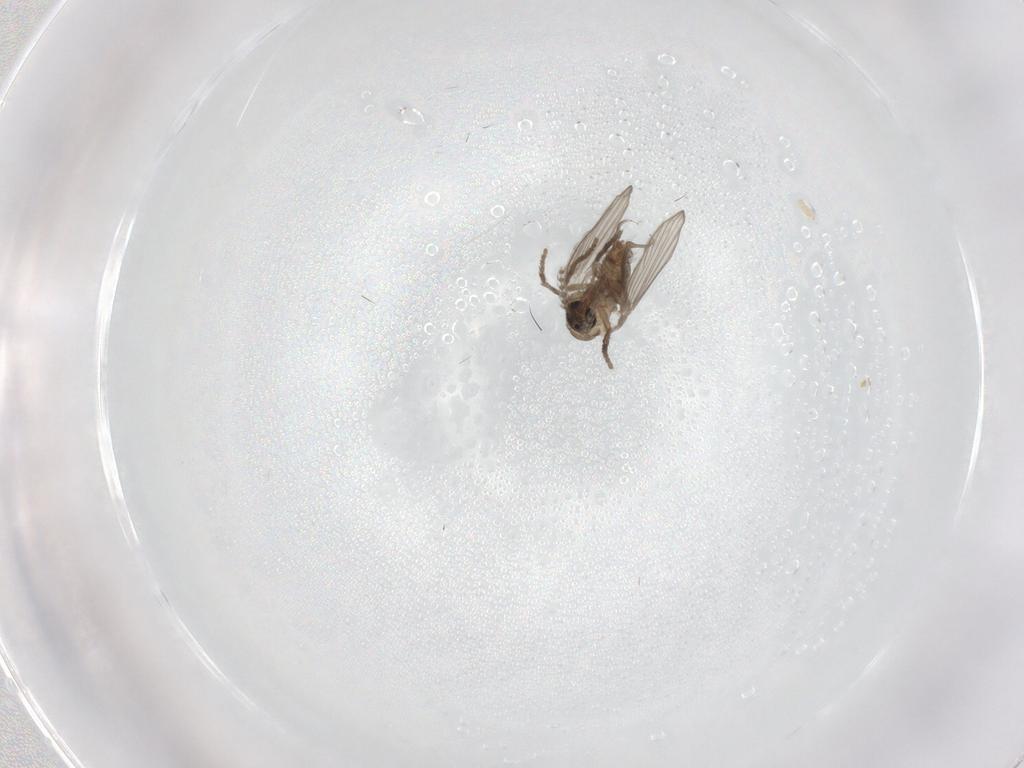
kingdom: Animalia
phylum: Arthropoda
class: Insecta
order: Diptera
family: Psychodidae
